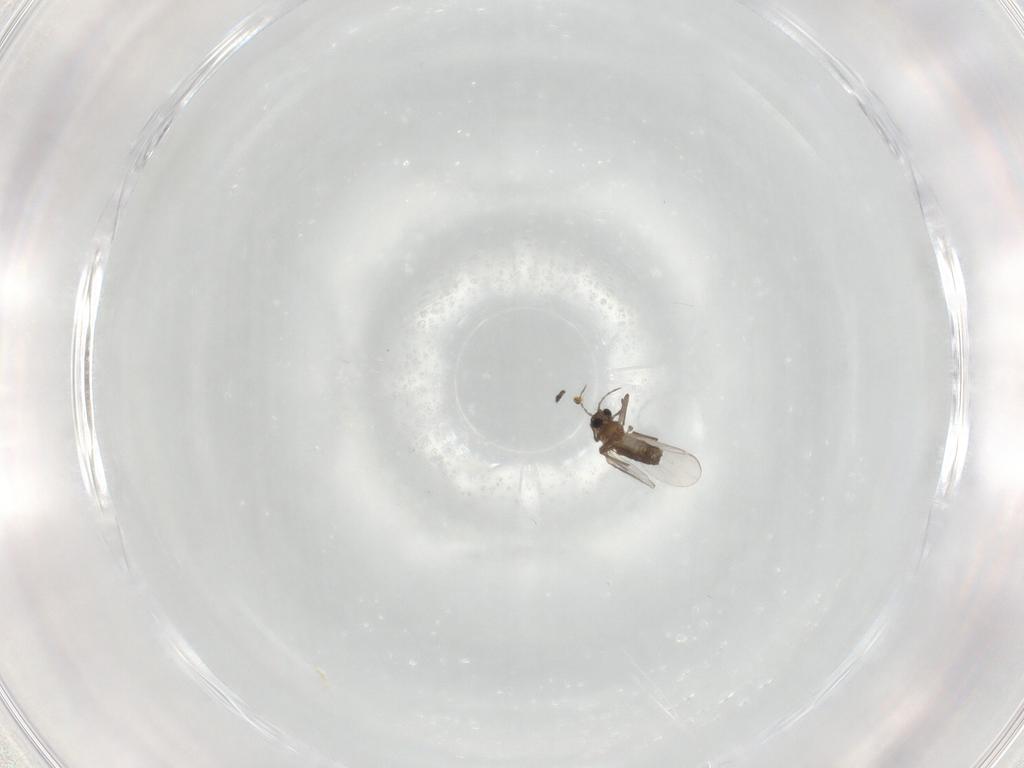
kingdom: Animalia
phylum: Arthropoda
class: Insecta
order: Diptera
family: Chironomidae
